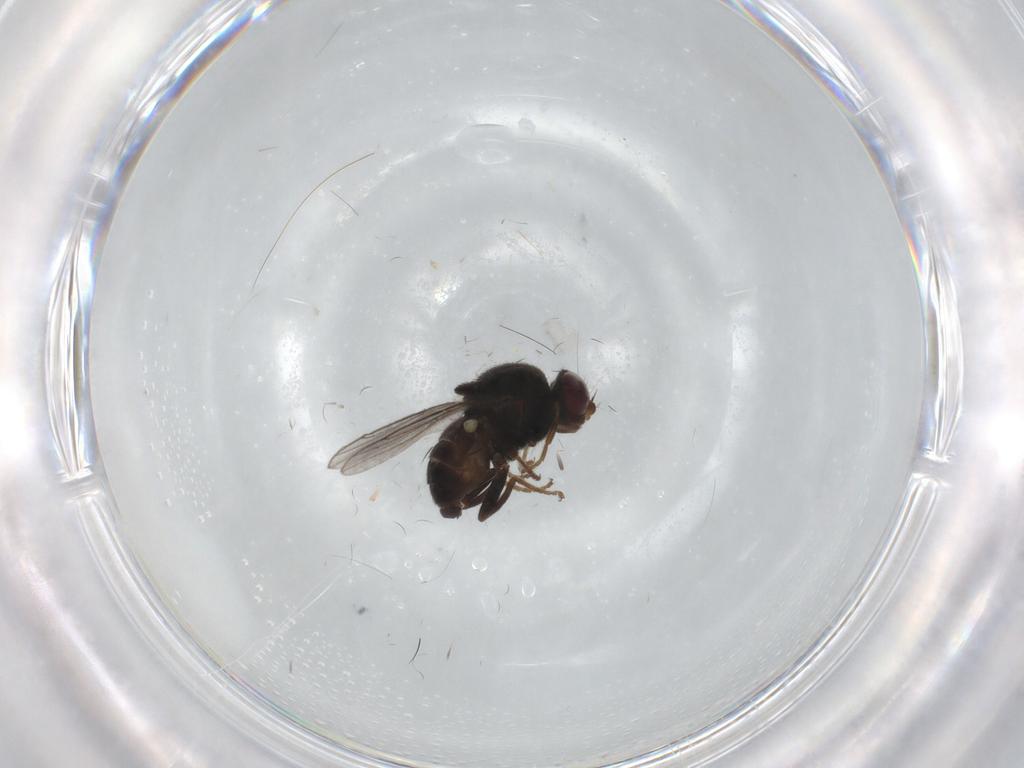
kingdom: Animalia
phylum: Arthropoda
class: Insecta
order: Diptera
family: Chloropidae
